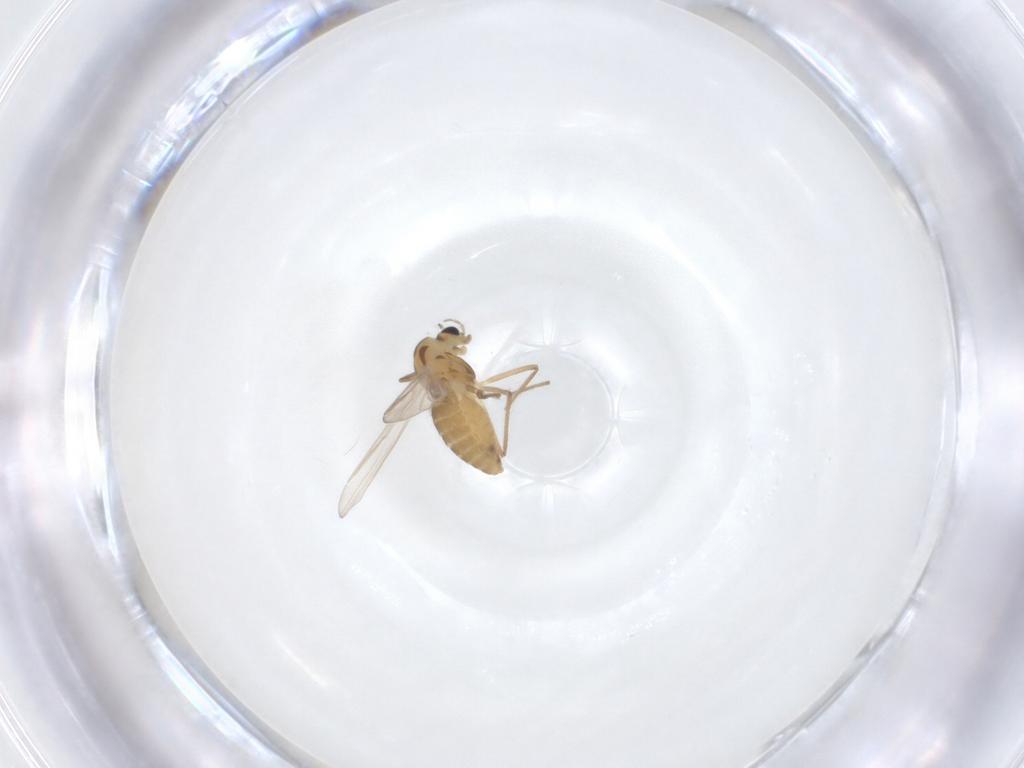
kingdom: Animalia
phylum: Arthropoda
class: Insecta
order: Diptera
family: Chironomidae
